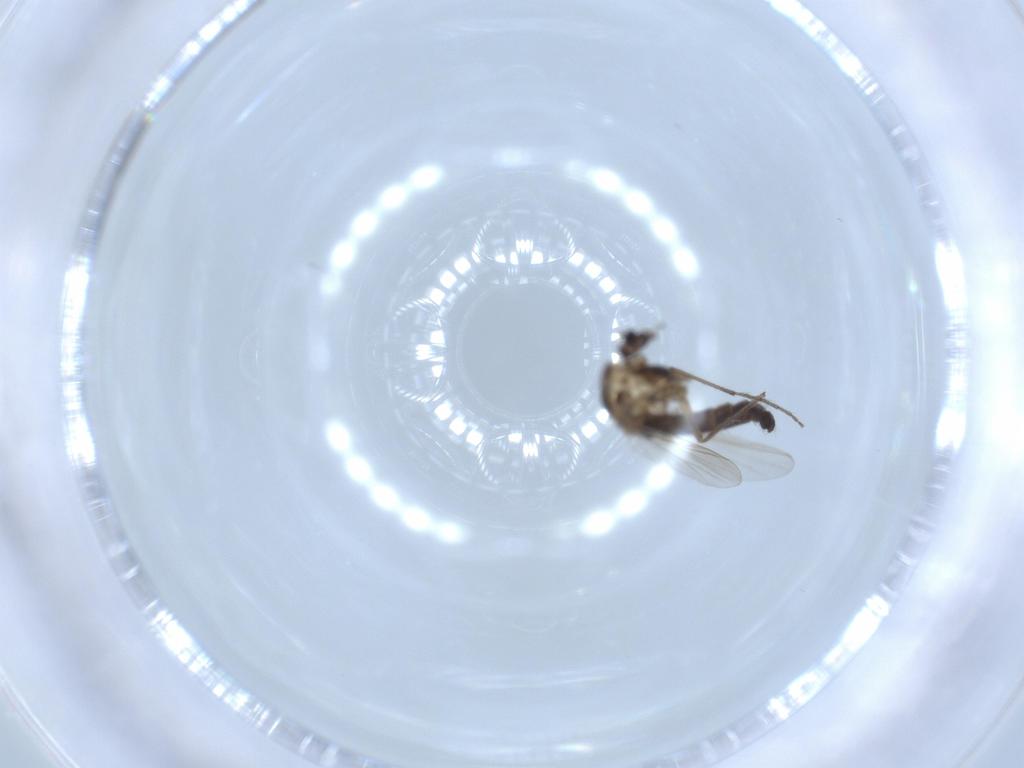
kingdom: Animalia
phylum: Arthropoda
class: Insecta
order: Diptera
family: Chironomidae
